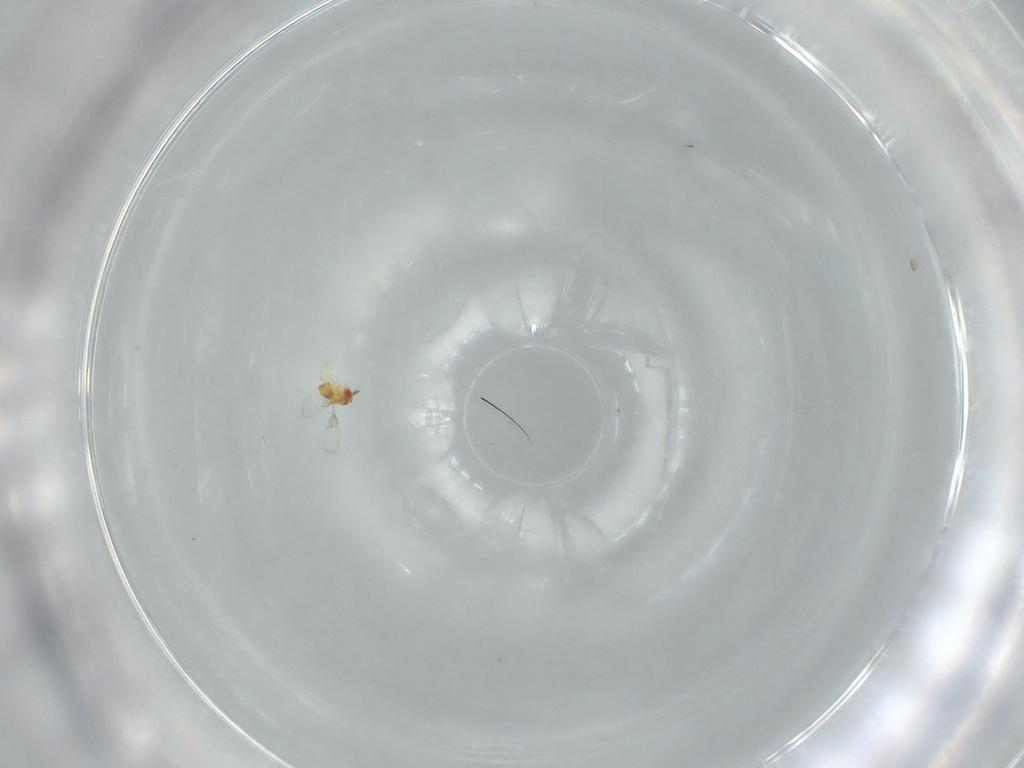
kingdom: Animalia
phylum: Arthropoda
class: Insecta
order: Hymenoptera
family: Trichogrammatidae
